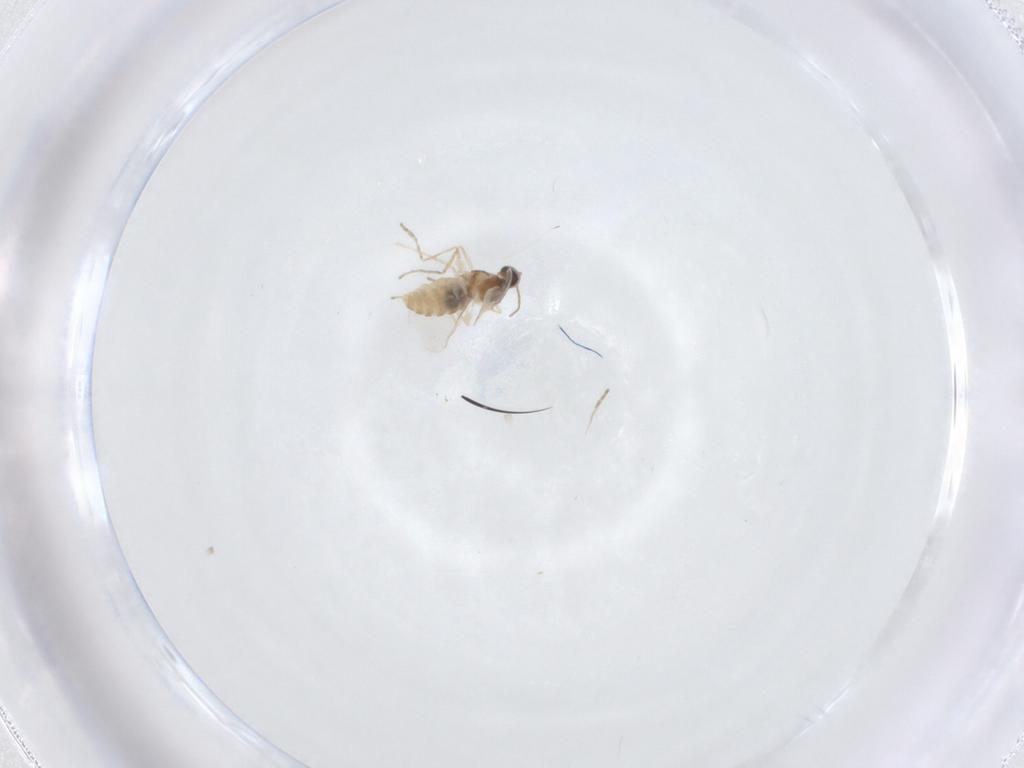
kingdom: Animalia
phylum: Arthropoda
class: Insecta
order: Diptera
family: Cecidomyiidae
